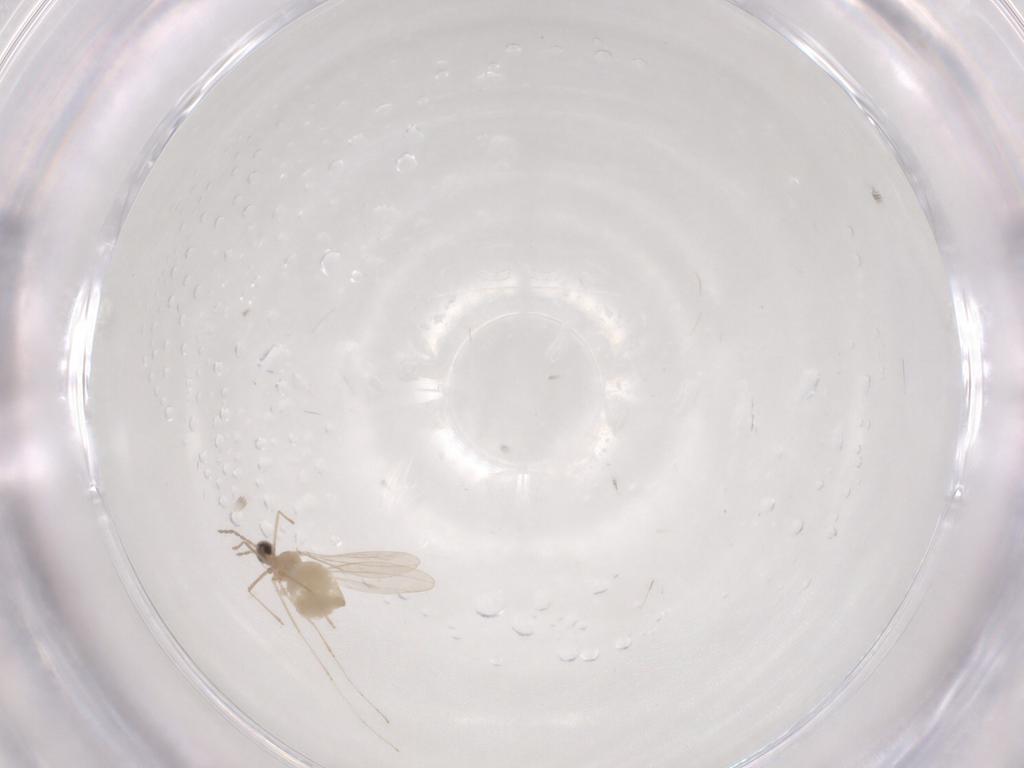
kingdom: Animalia
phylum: Arthropoda
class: Insecta
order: Diptera
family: Cecidomyiidae
